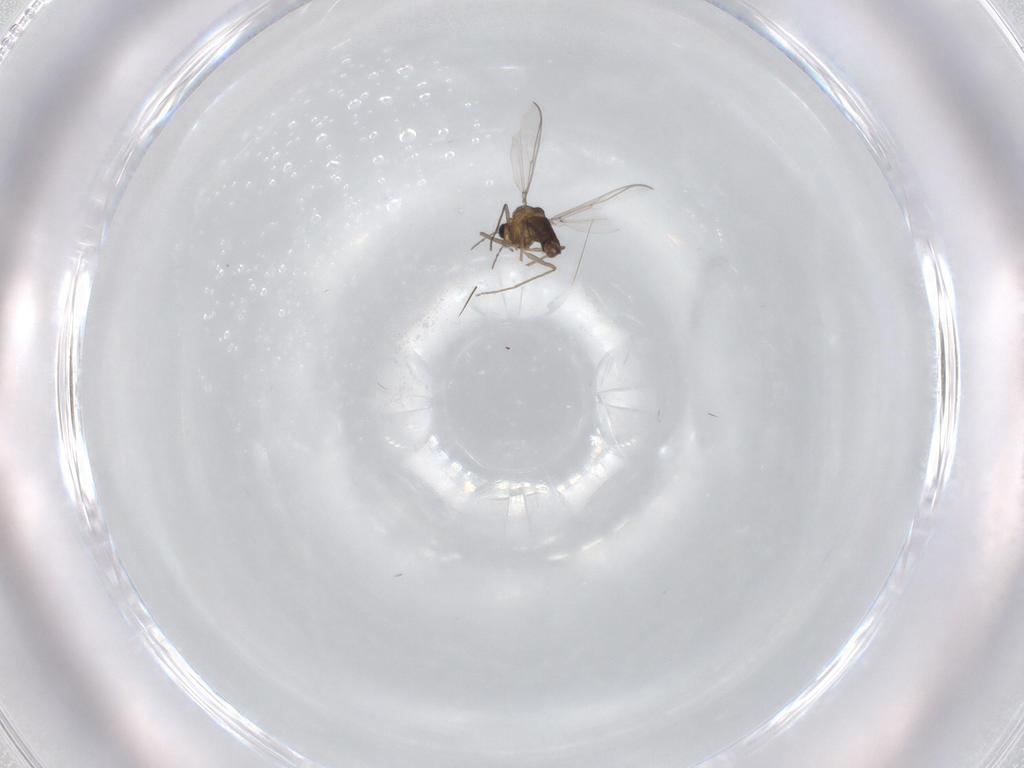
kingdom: Animalia
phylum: Arthropoda
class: Insecta
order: Diptera
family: Chironomidae
